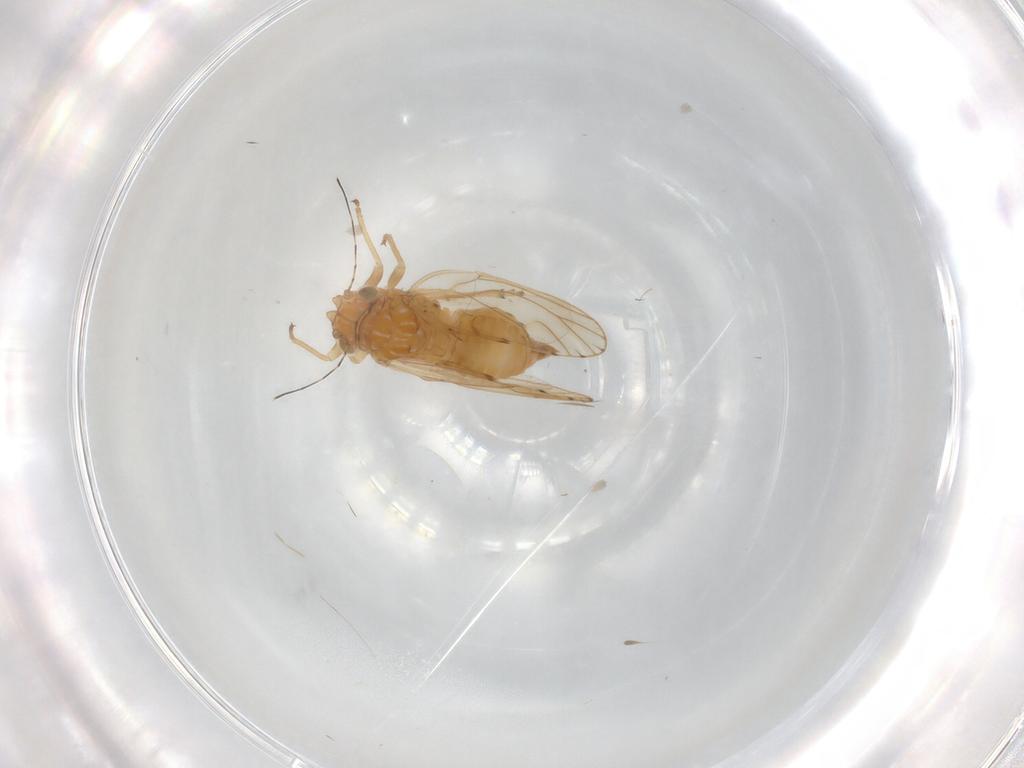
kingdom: Animalia
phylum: Arthropoda
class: Insecta
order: Hemiptera
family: Psylloidea_incertae_sedis
